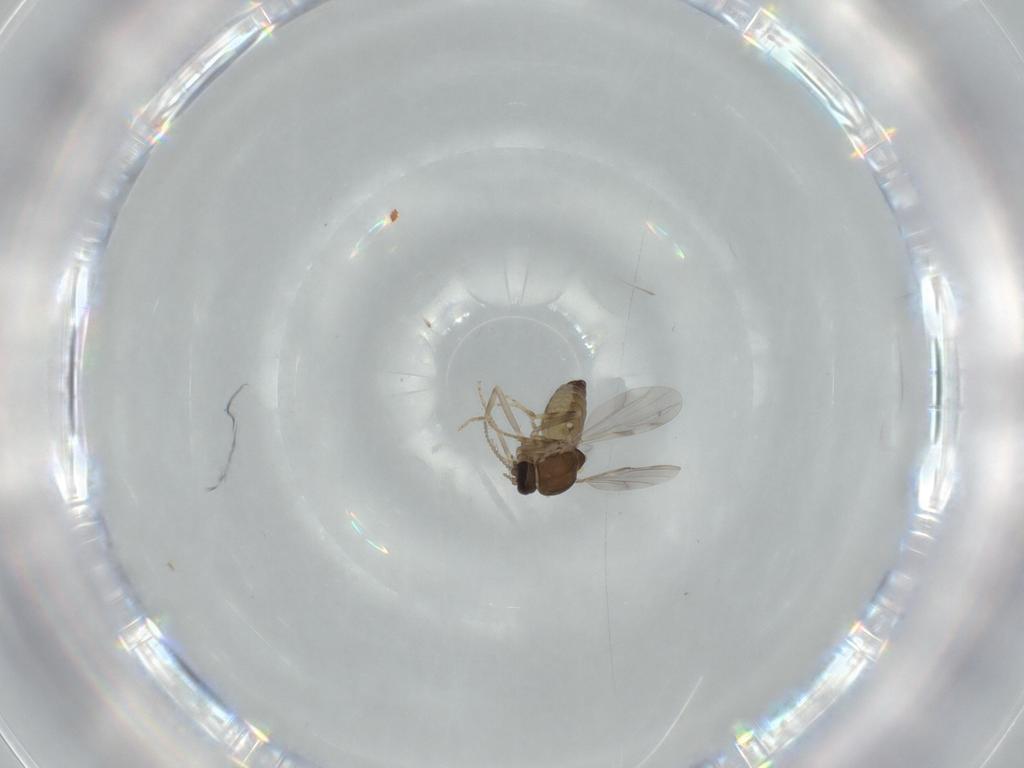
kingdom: Animalia
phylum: Arthropoda
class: Insecta
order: Diptera
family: Ceratopogonidae
